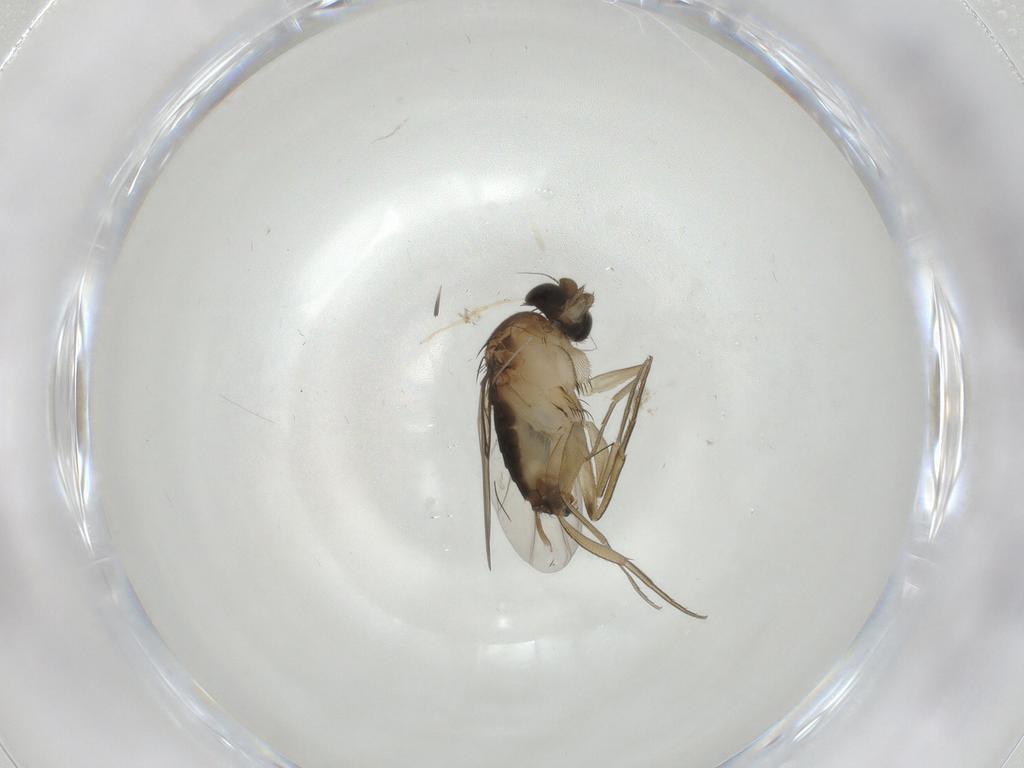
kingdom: Animalia
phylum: Arthropoda
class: Insecta
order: Diptera
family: Phoridae
